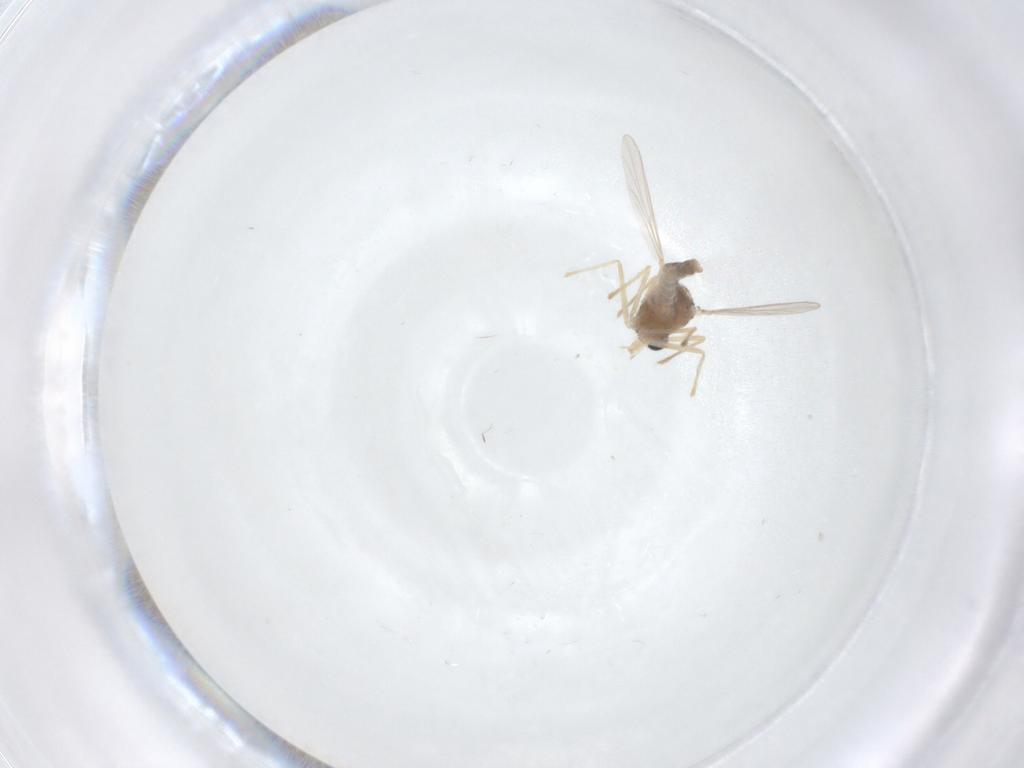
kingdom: Animalia
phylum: Arthropoda
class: Insecta
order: Diptera
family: Chironomidae
